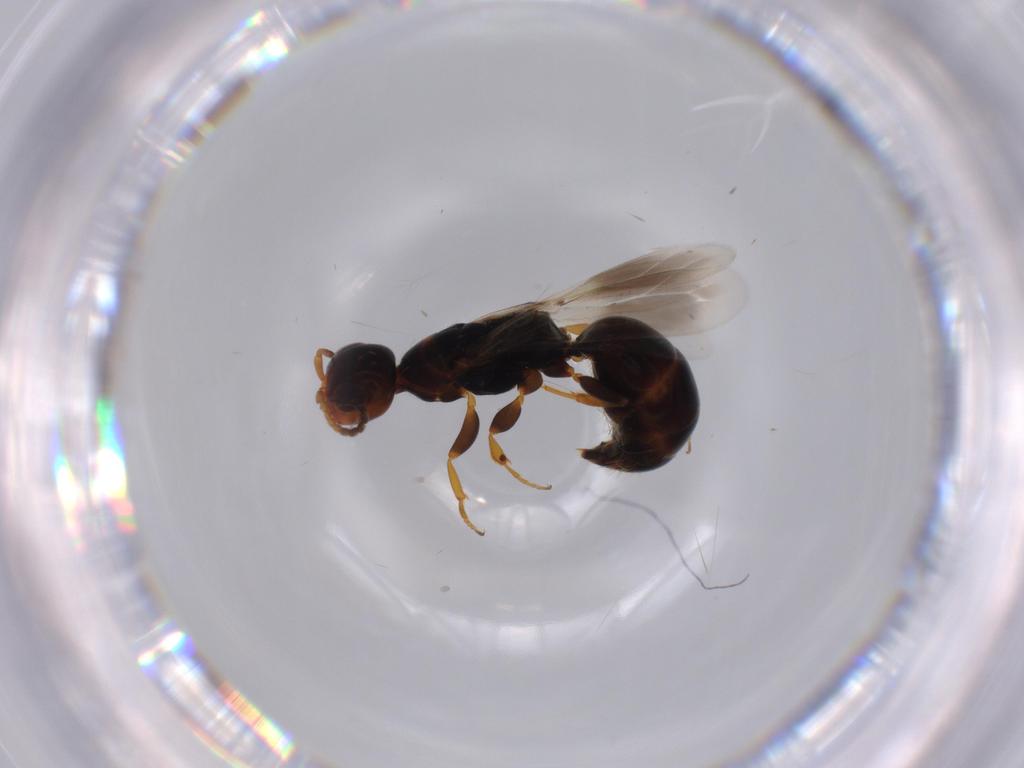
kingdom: Animalia
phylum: Arthropoda
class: Insecta
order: Hymenoptera
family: Bethylidae
